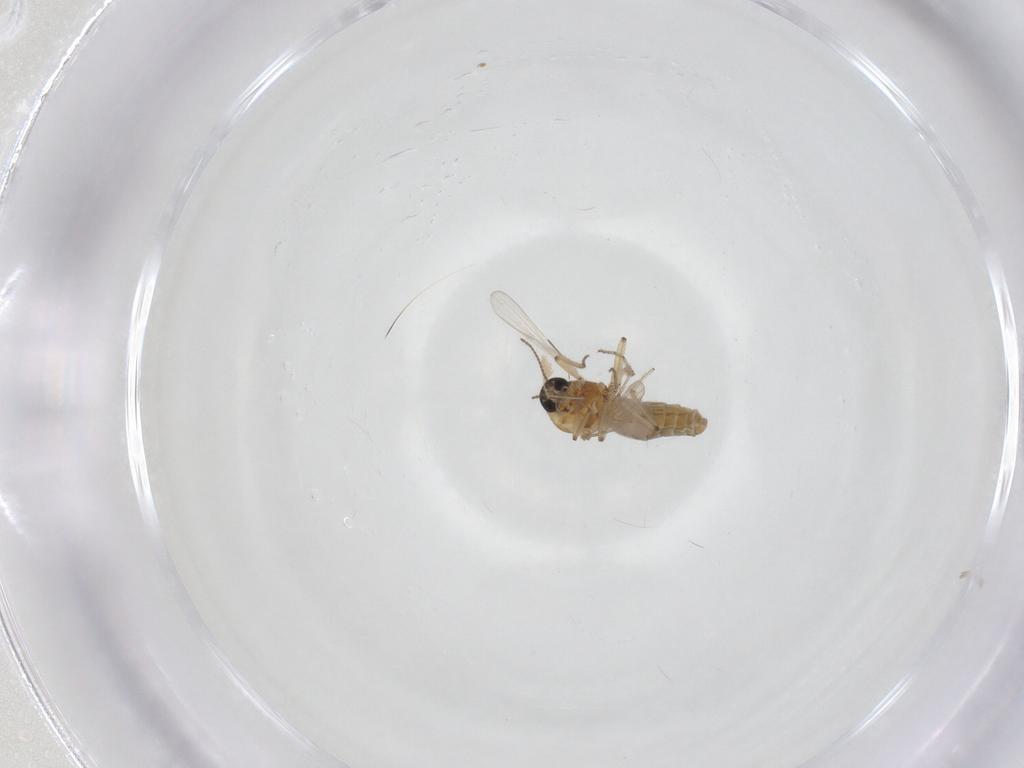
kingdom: Animalia
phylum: Arthropoda
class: Insecta
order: Diptera
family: Ceratopogonidae
